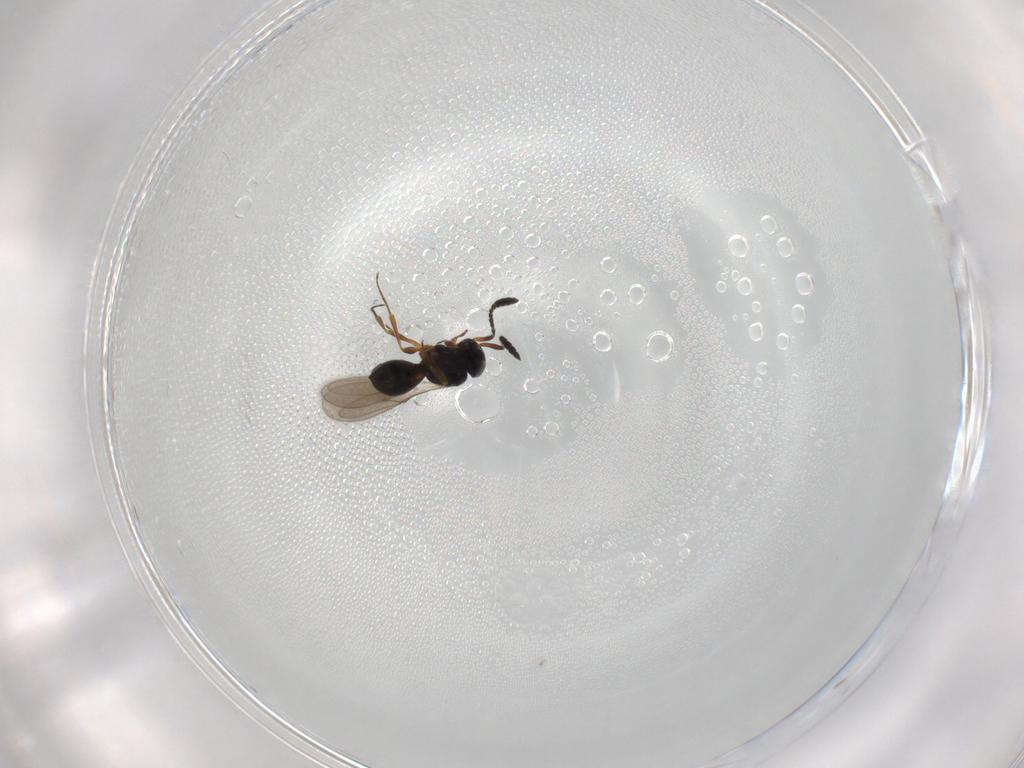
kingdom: Animalia
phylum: Arthropoda
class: Insecta
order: Hymenoptera
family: Scelionidae
